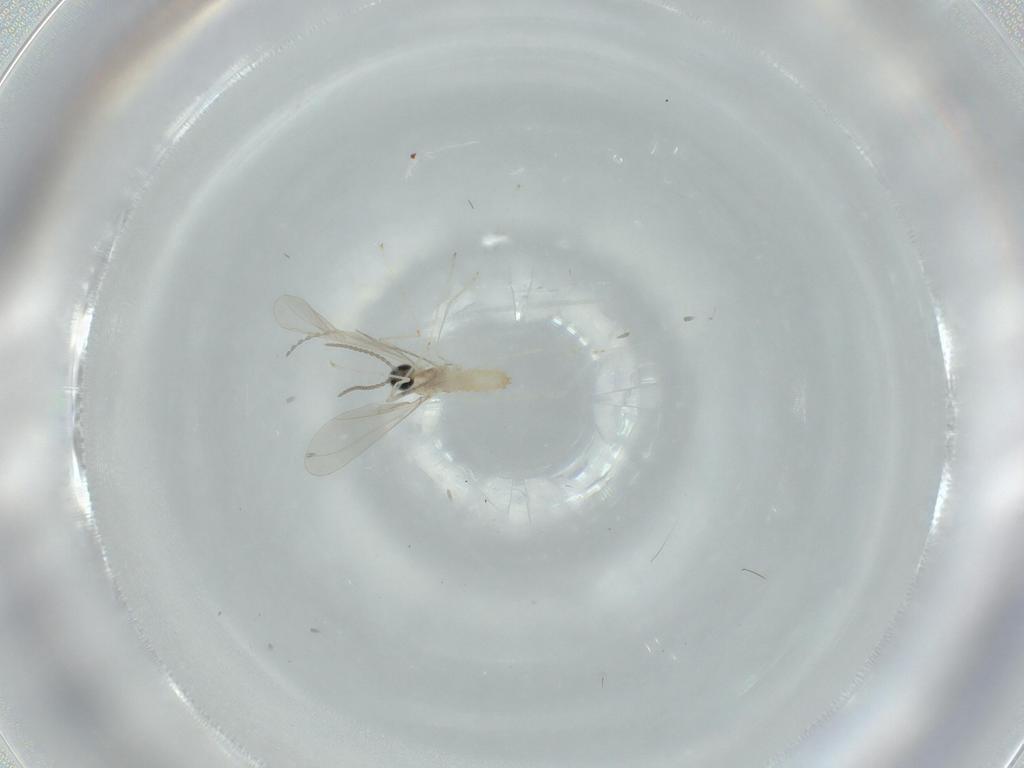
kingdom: Animalia
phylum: Arthropoda
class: Insecta
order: Diptera
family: Cecidomyiidae
